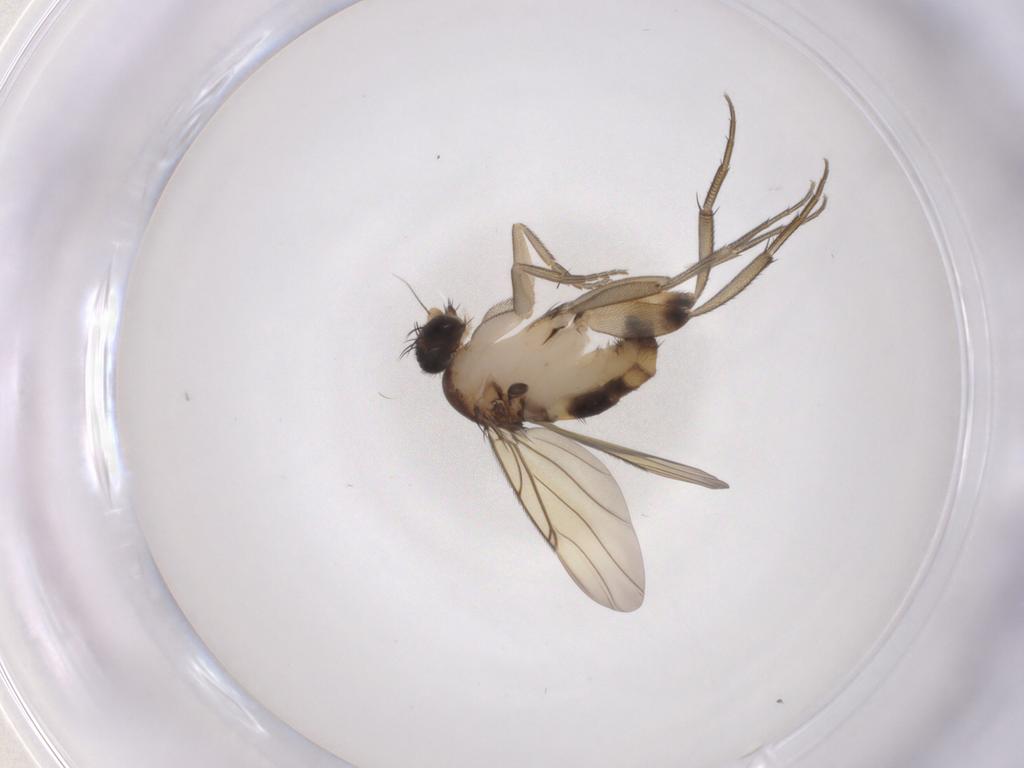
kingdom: Animalia
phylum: Arthropoda
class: Insecta
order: Diptera
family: Phoridae
